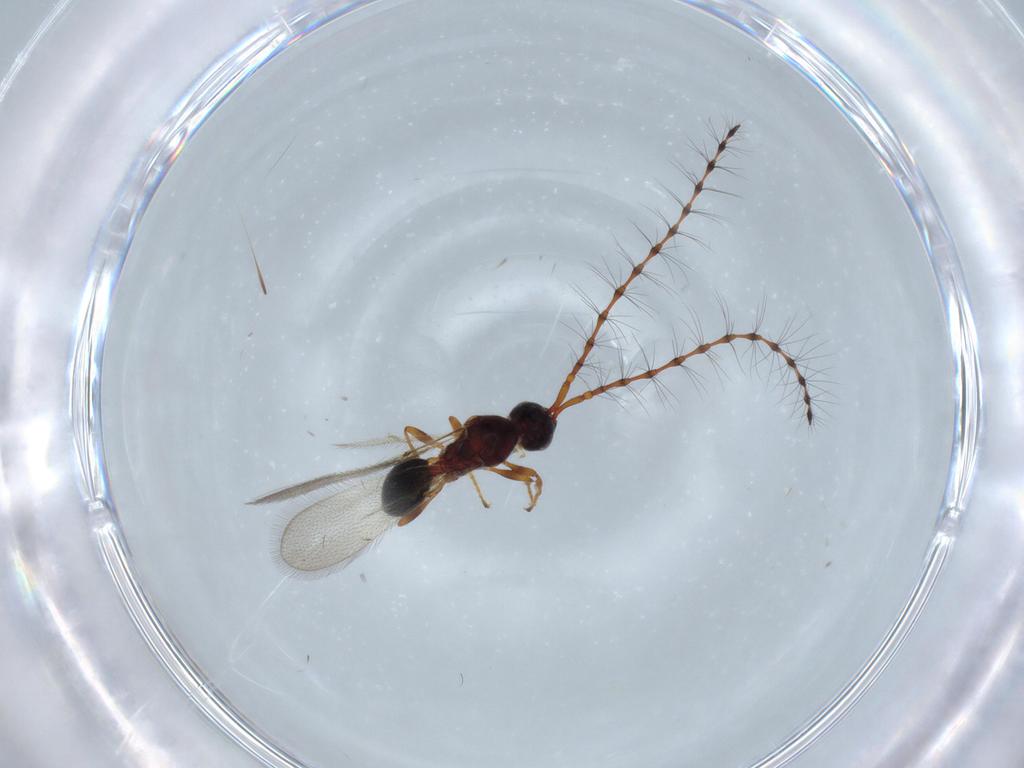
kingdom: Animalia
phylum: Arthropoda
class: Insecta
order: Hymenoptera
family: Diapriidae
